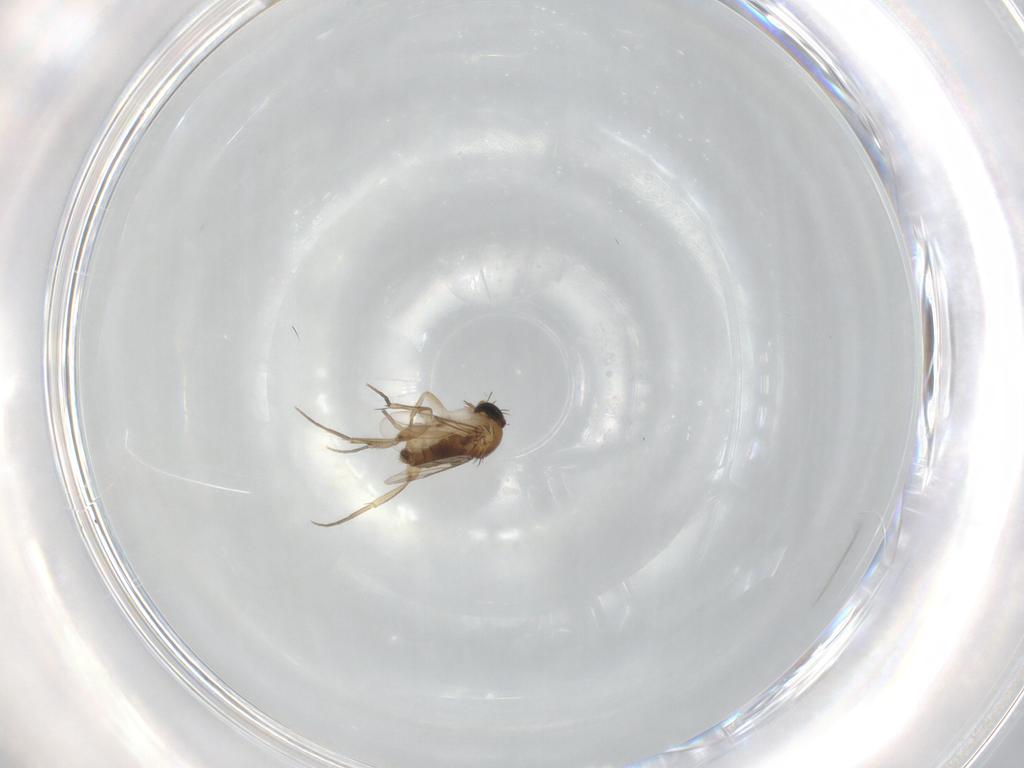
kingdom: Animalia
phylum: Arthropoda
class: Insecta
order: Diptera
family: Phoridae
